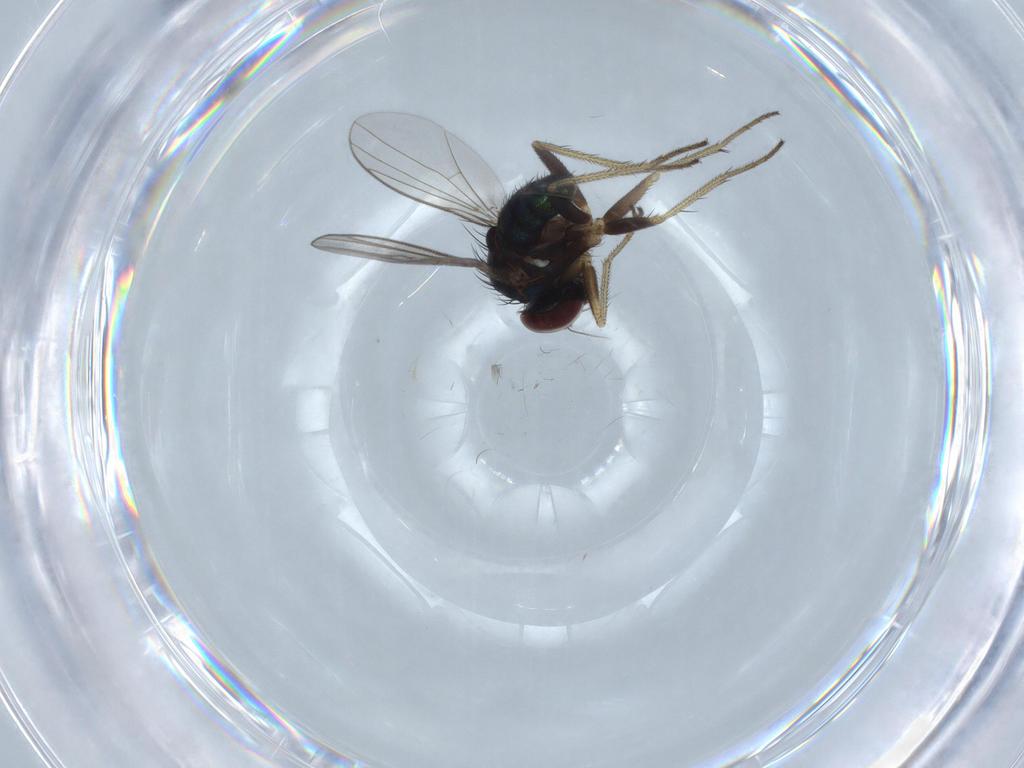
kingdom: Animalia
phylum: Arthropoda
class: Insecta
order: Diptera
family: Dolichopodidae
